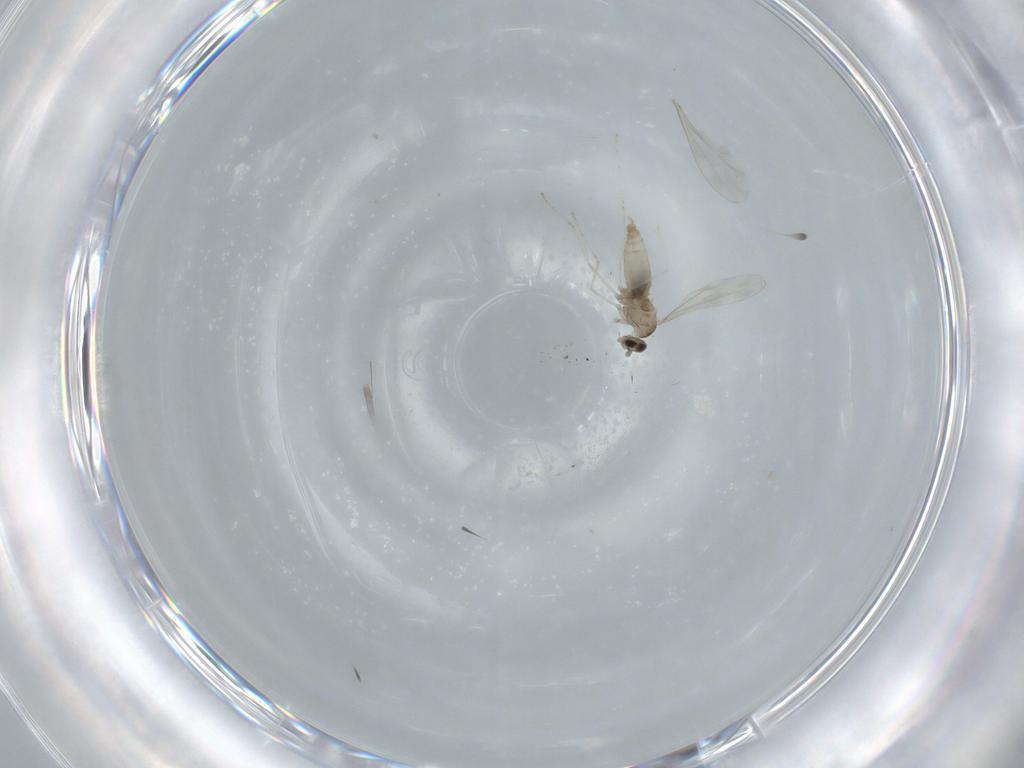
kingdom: Animalia
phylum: Arthropoda
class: Insecta
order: Diptera
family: Cecidomyiidae
